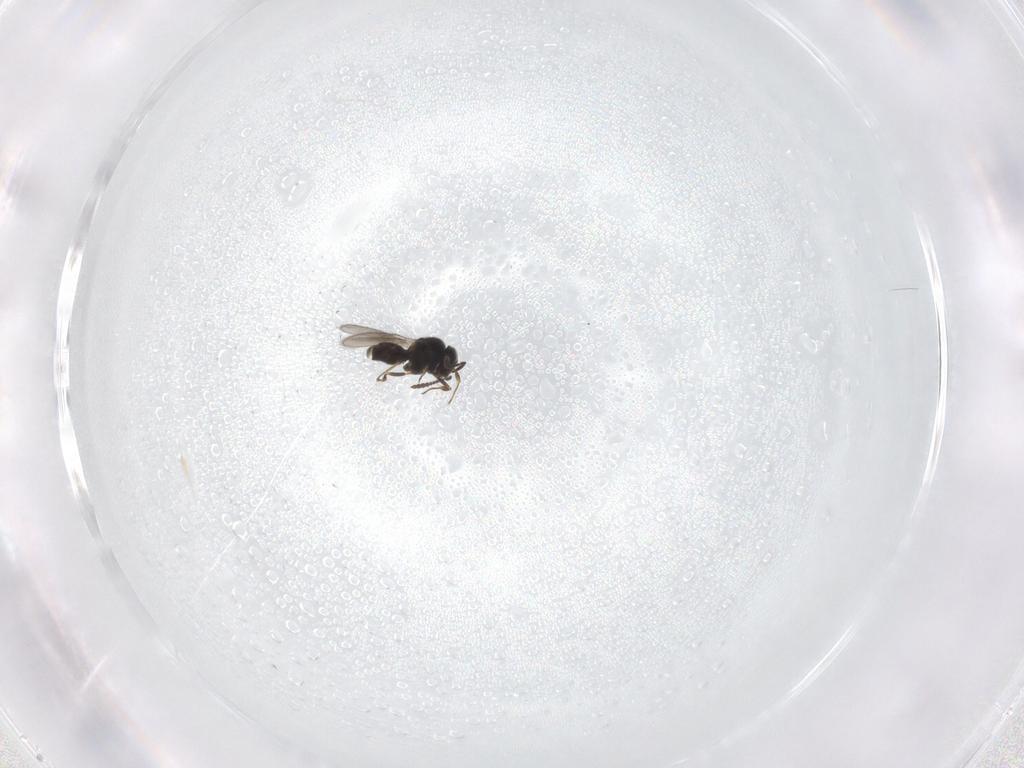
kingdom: Animalia
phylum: Arthropoda
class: Insecta
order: Hymenoptera
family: Scelionidae
